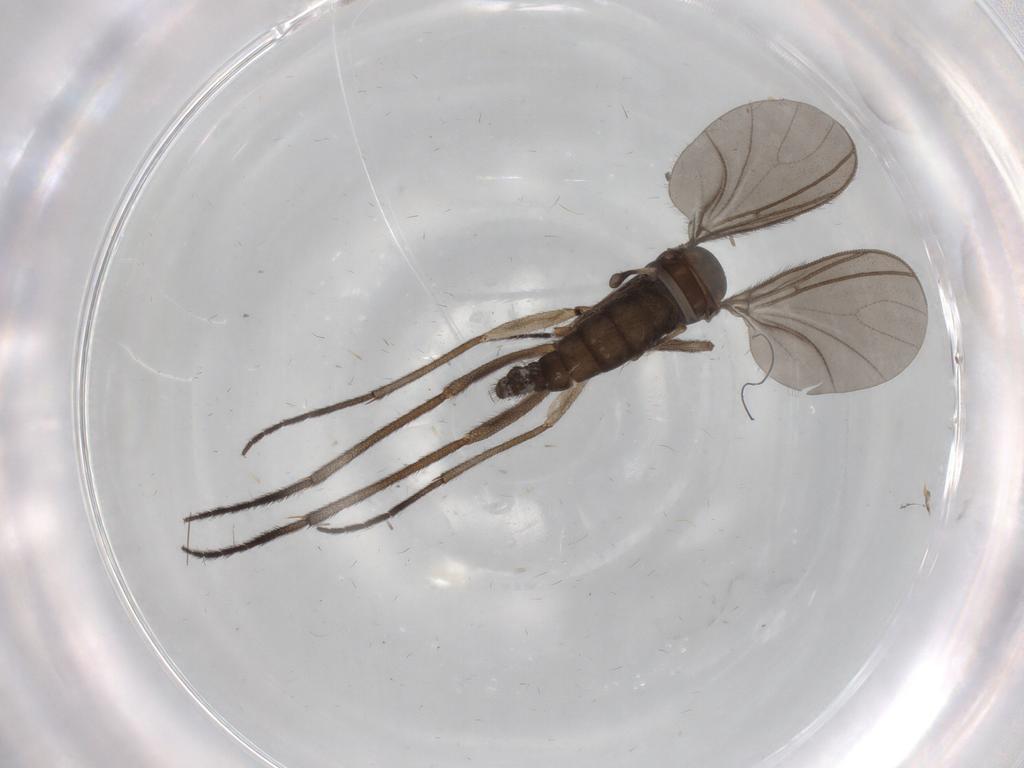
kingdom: Animalia
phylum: Arthropoda
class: Insecta
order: Diptera
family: Sciaridae
